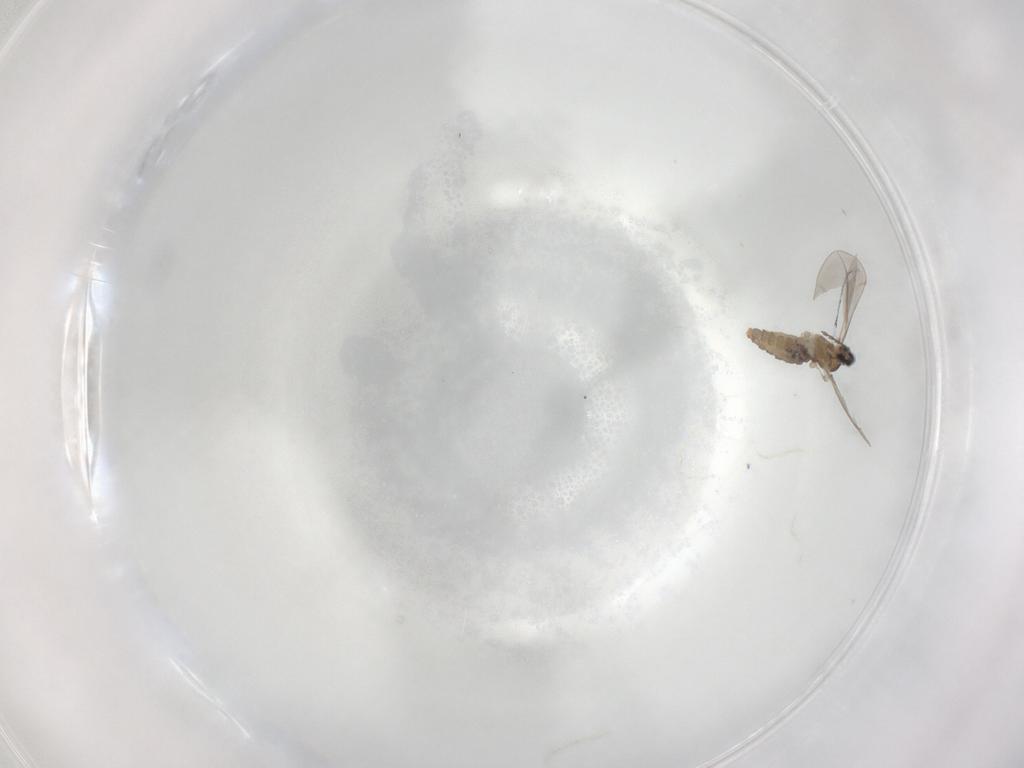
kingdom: Animalia
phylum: Arthropoda
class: Insecta
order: Diptera
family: Cecidomyiidae
